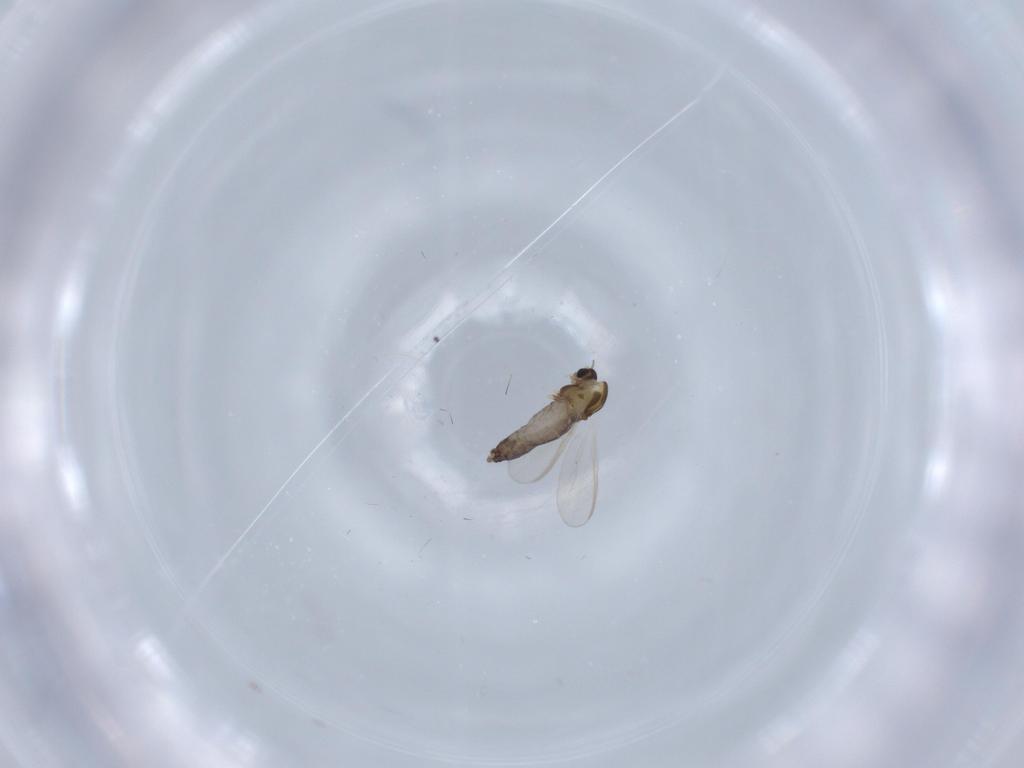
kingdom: Animalia
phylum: Arthropoda
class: Insecta
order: Diptera
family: Chironomidae
